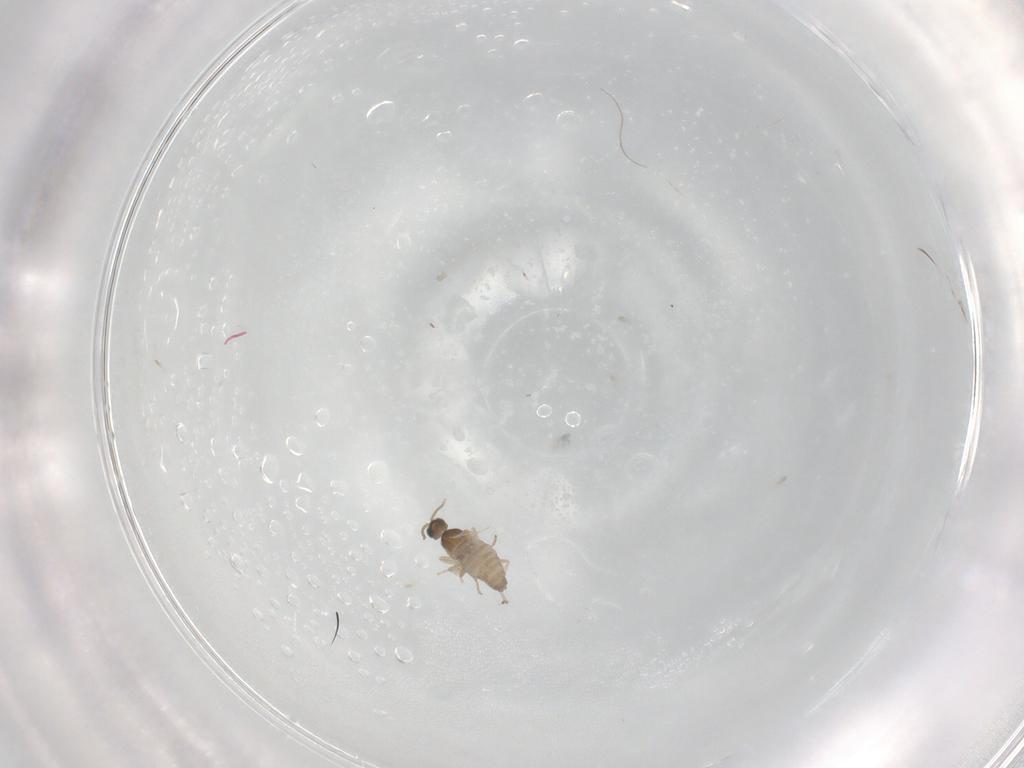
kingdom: Animalia
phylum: Arthropoda
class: Insecta
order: Diptera
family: Cecidomyiidae
